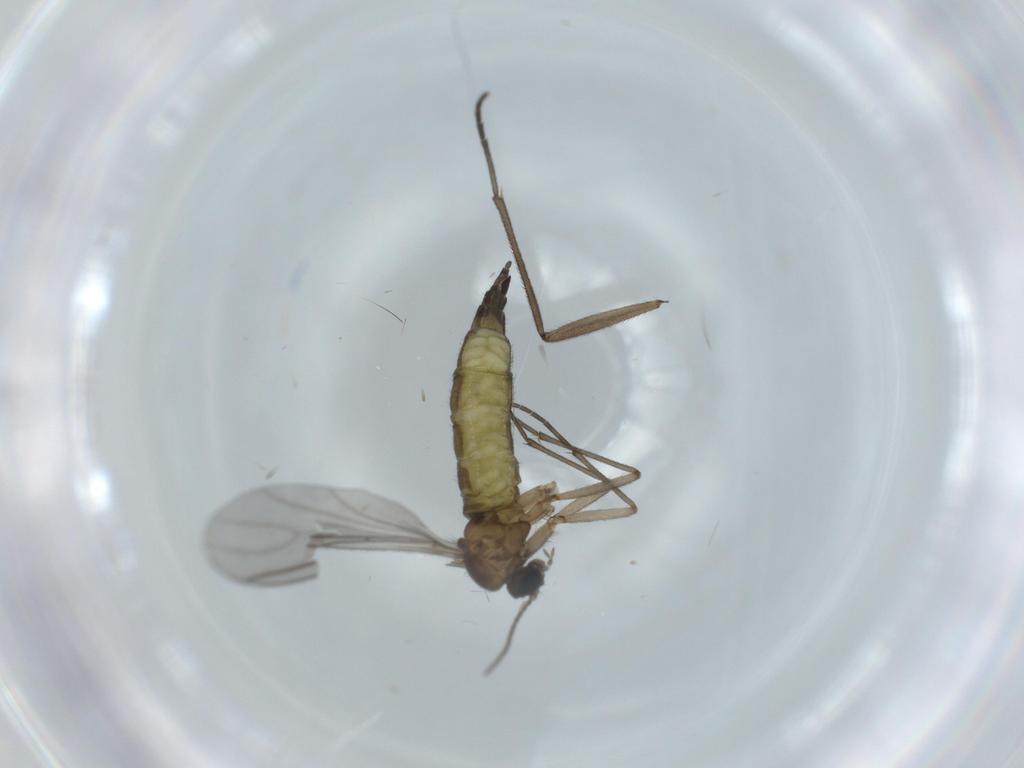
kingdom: Animalia
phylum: Arthropoda
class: Insecta
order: Diptera
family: Sciaridae
